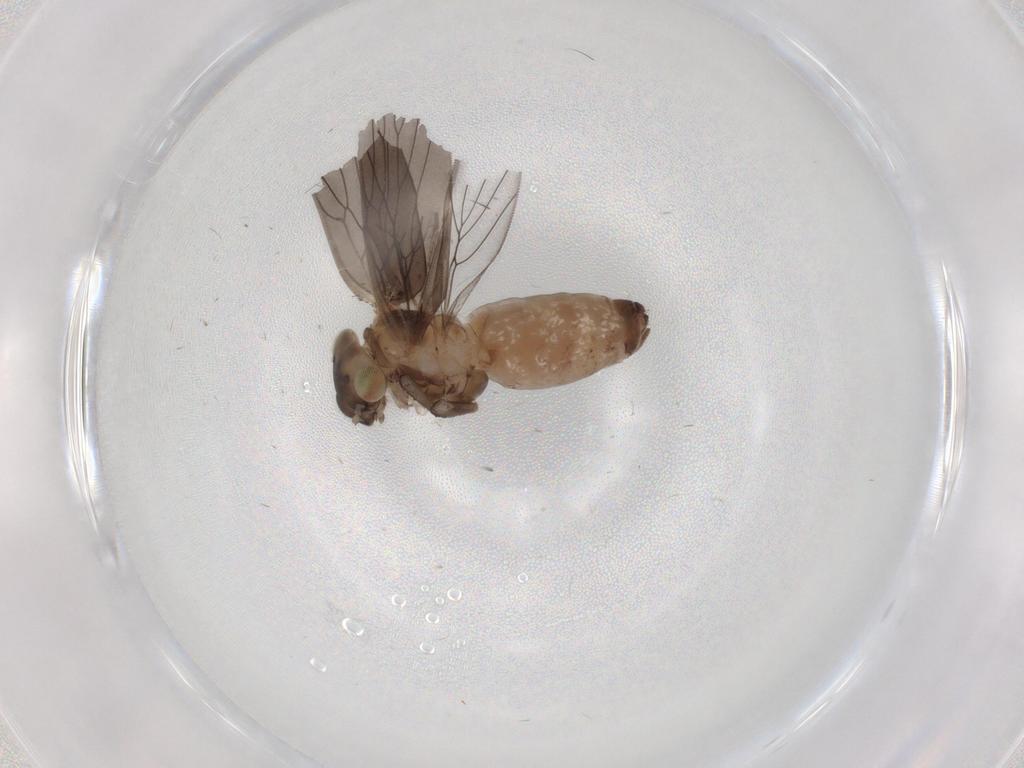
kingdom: Animalia
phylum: Arthropoda
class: Insecta
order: Psocodea
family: Lepidopsocidae
